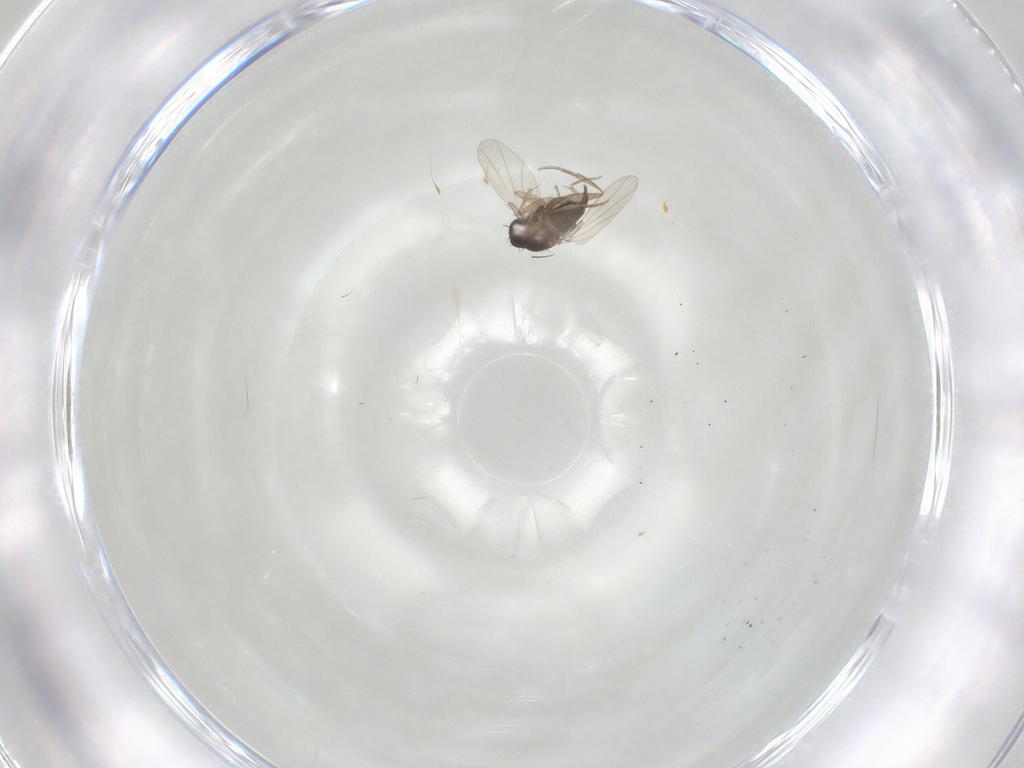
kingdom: Animalia
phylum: Arthropoda
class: Insecta
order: Diptera
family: Phoridae
